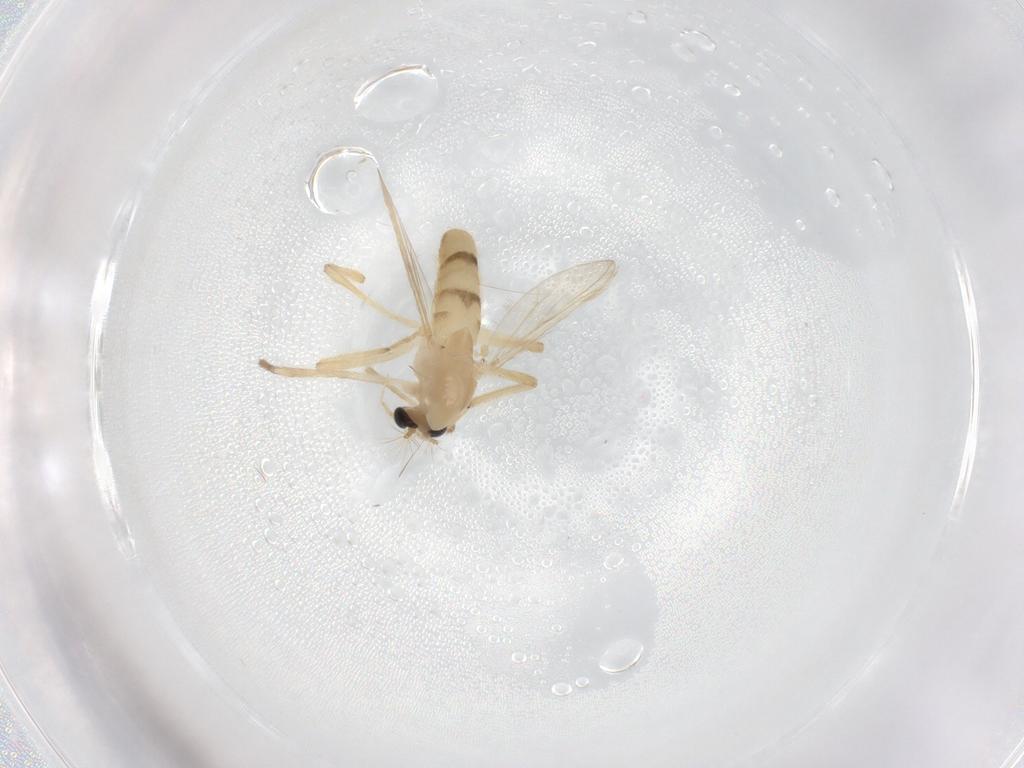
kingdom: Animalia
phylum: Arthropoda
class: Insecta
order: Diptera
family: Chironomidae
